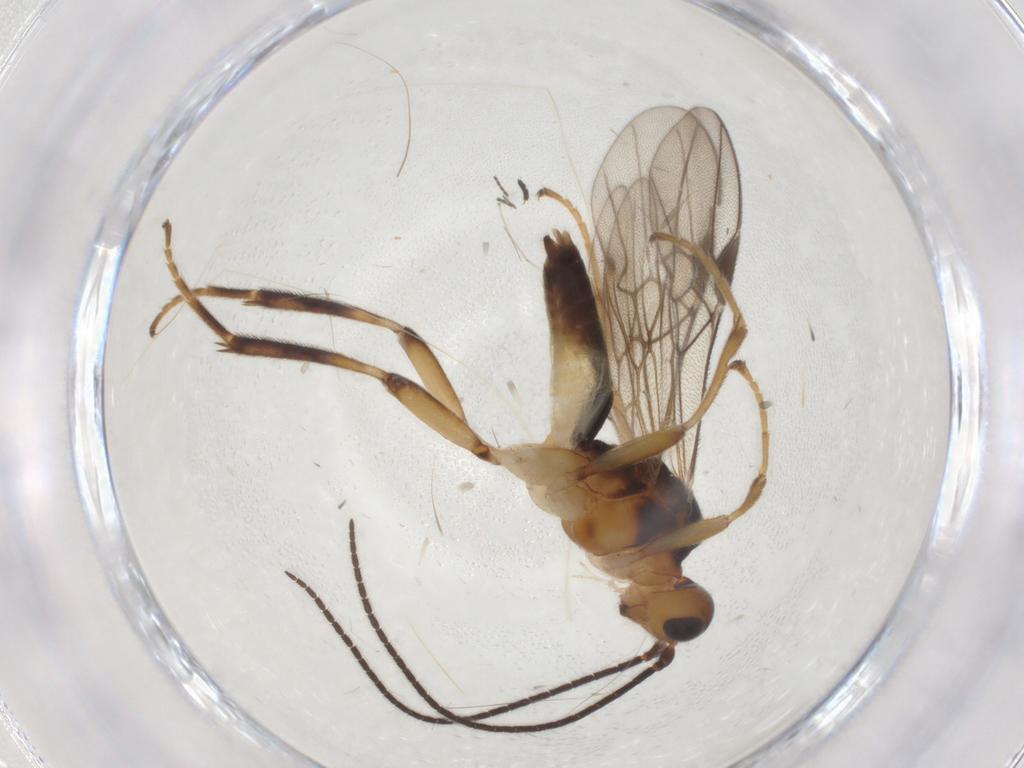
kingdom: Animalia
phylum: Arthropoda
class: Insecta
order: Hymenoptera
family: Braconidae
